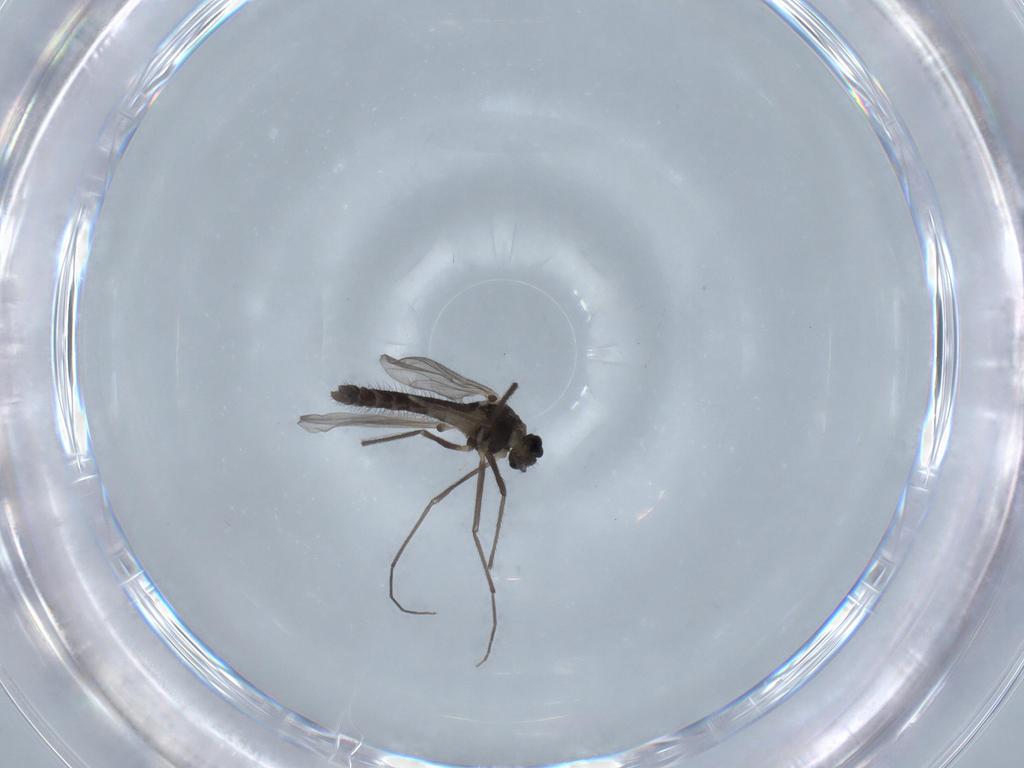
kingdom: Animalia
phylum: Arthropoda
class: Insecta
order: Diptera
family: Chironomidae
